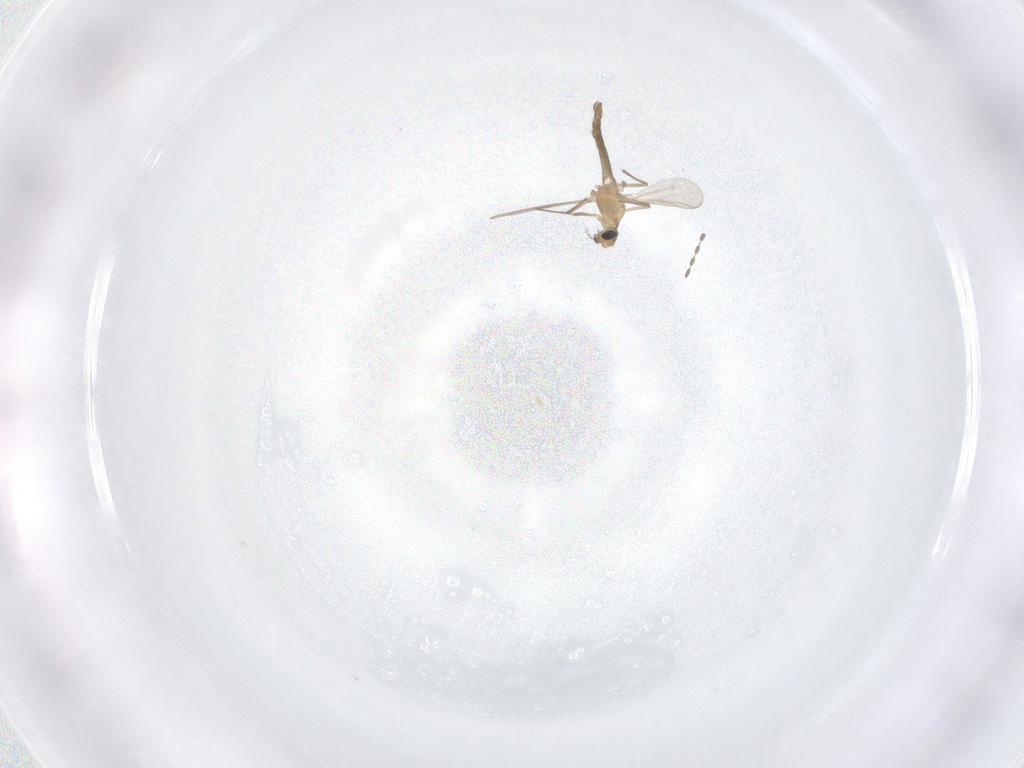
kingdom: Animalia
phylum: Arthropoda
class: Insecta
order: Diptera
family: Chironomidae
